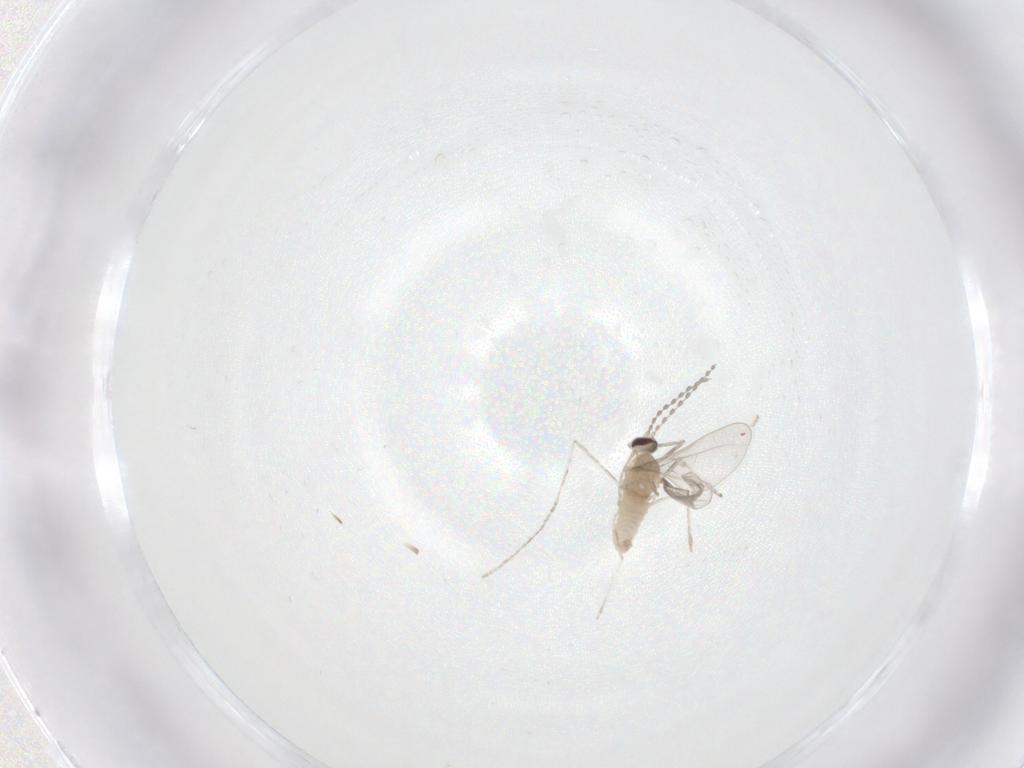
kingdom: Animalia
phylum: Arthropoda
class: Insecta
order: Diptera
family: Cecidomyiidae
